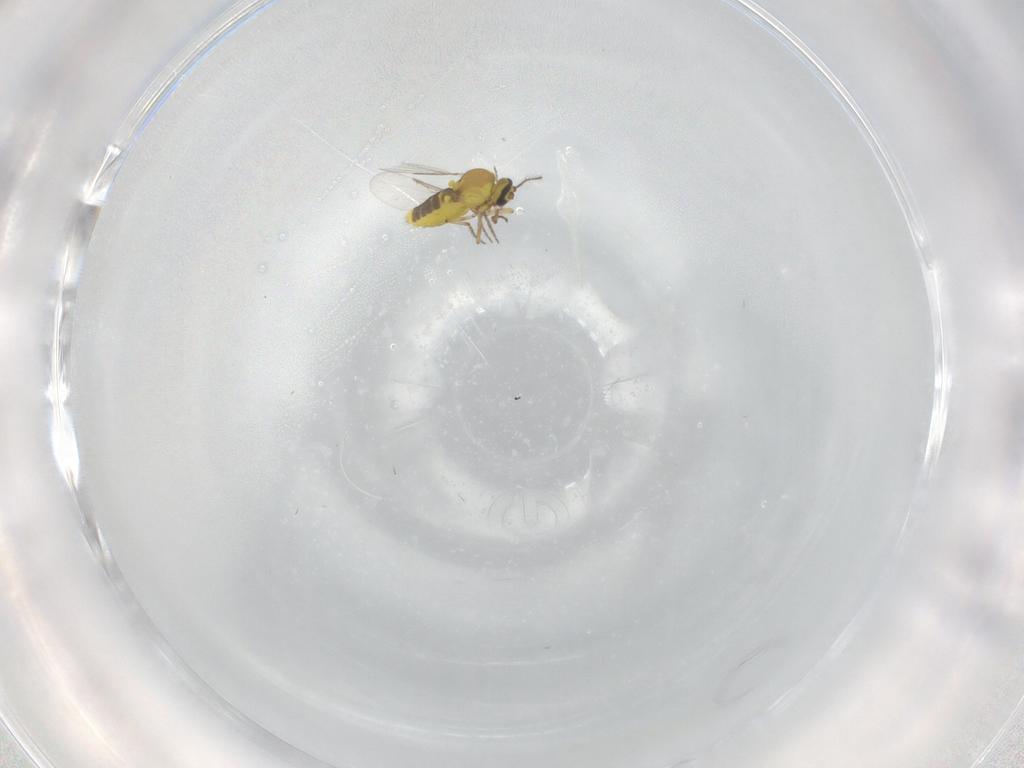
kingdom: Animalia
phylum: Arthropoda
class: Insecta
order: Diptera
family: Ceratopogonidae
